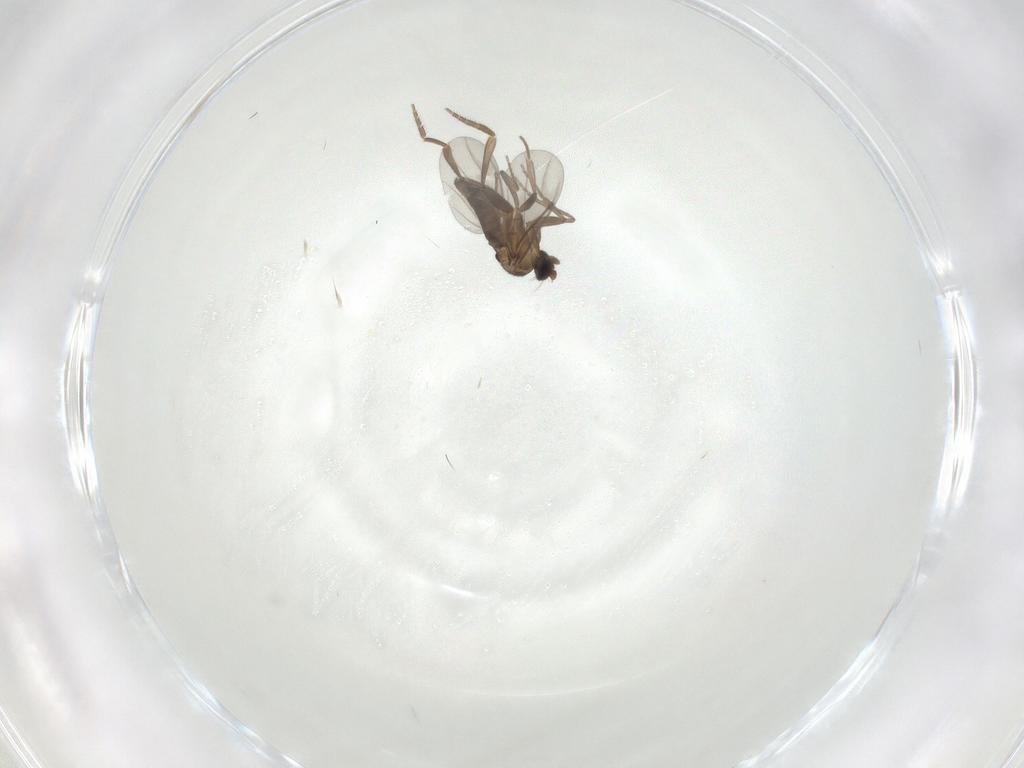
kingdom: Animalia
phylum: Arthropoda
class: Insecta
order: Diptera
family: Phoridae
